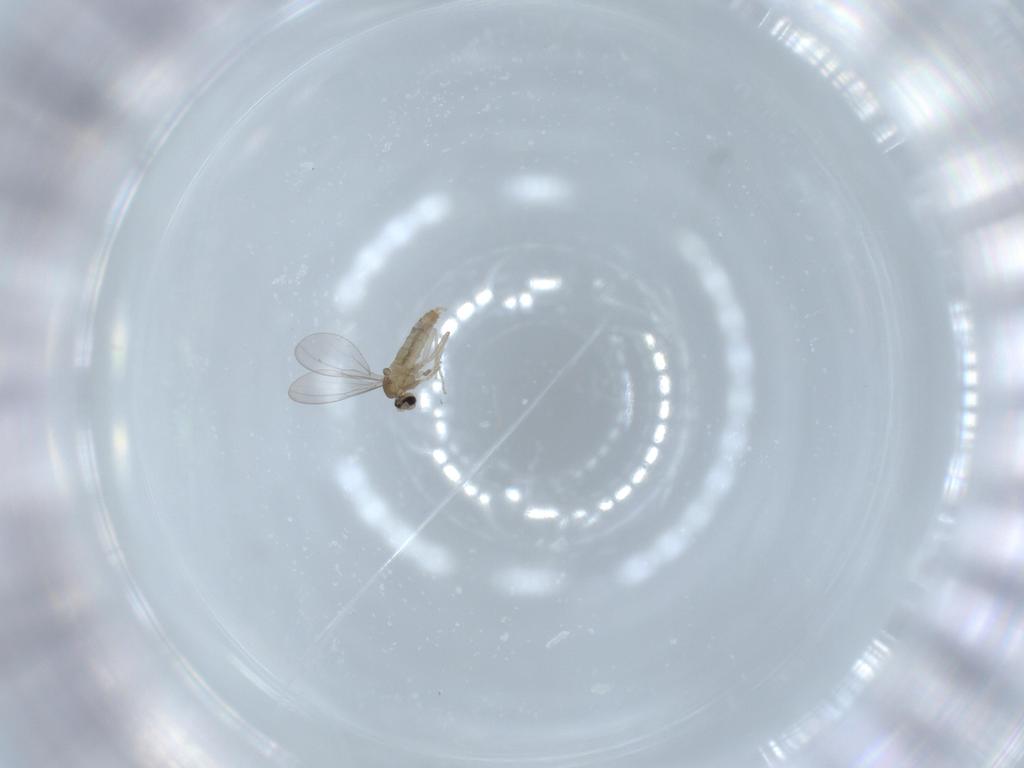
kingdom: Animalia
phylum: Arthropoda
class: Insecta
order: Diptera
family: Cecidomyiidae
